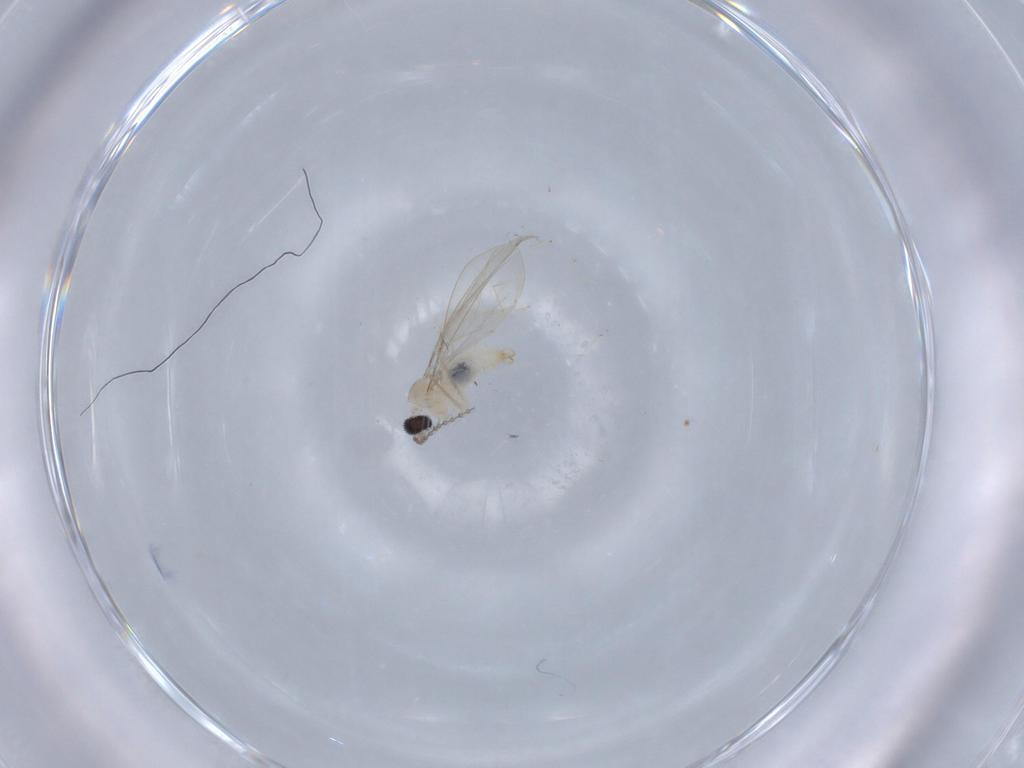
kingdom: Animalia
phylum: Arthropoda
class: Insecta
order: Diptera
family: Cecidomyiidae
